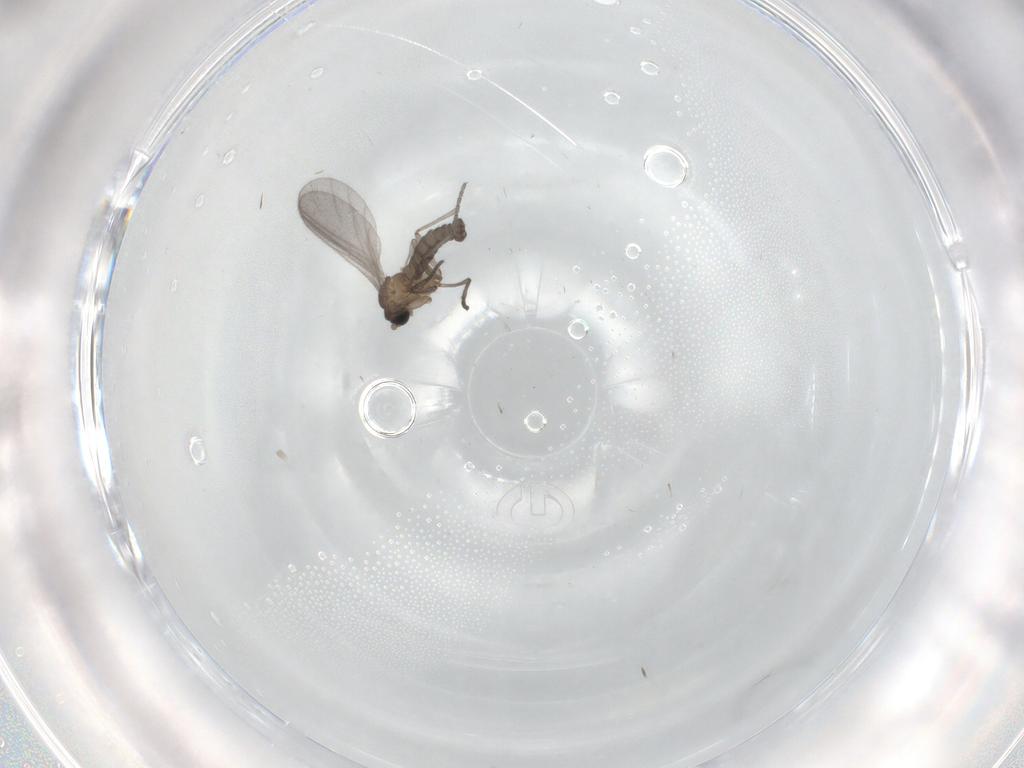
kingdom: Animalia
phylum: Arthropoda
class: Insecta
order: Diptera
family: Sciaridae
